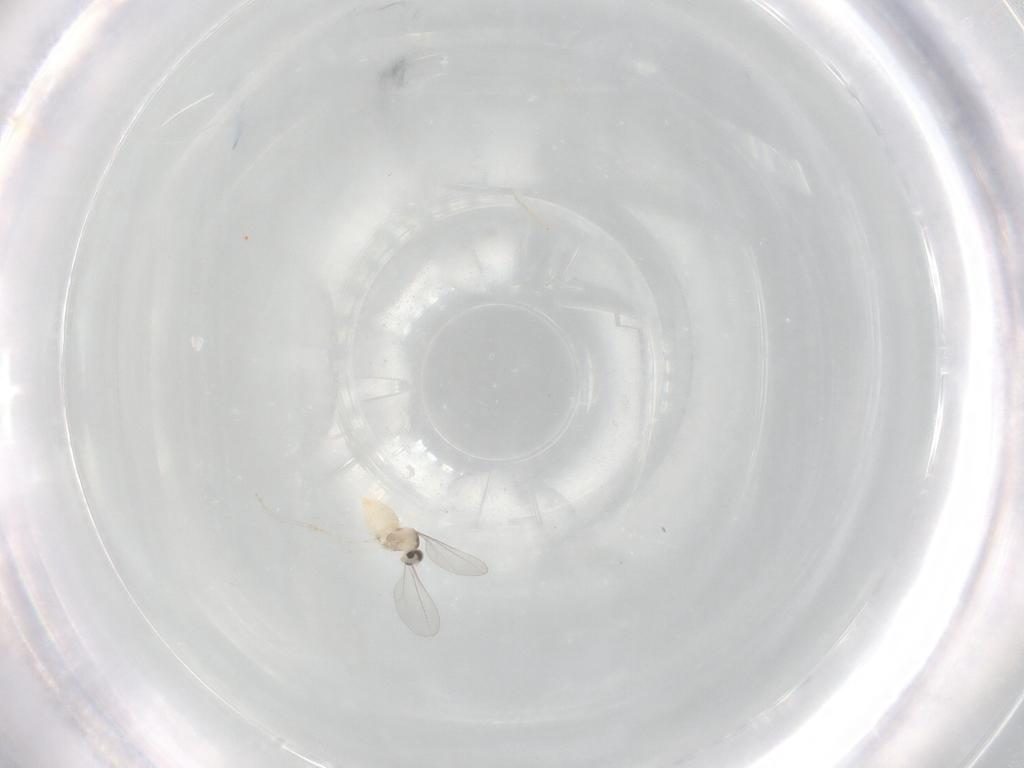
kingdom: Animalia
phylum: Arthropoda
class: Insecta
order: Diptera
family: Cecidomyiidae
